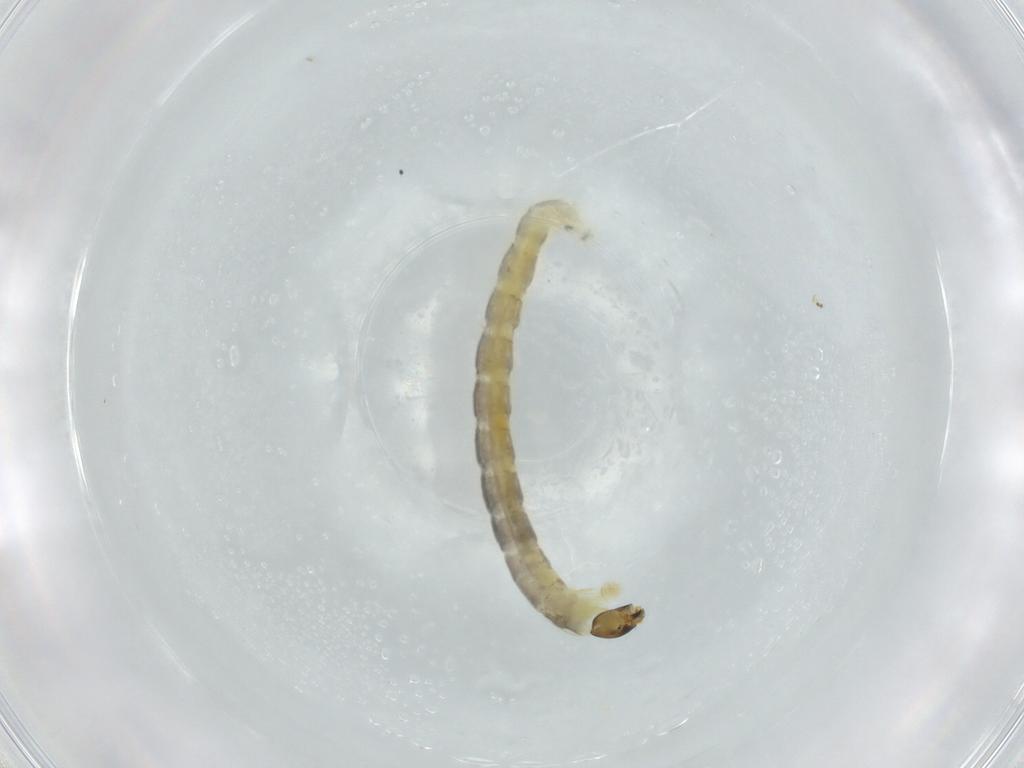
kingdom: Animalia
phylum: Arthropoda
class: Insecta
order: Diptera
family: Chironomidae
